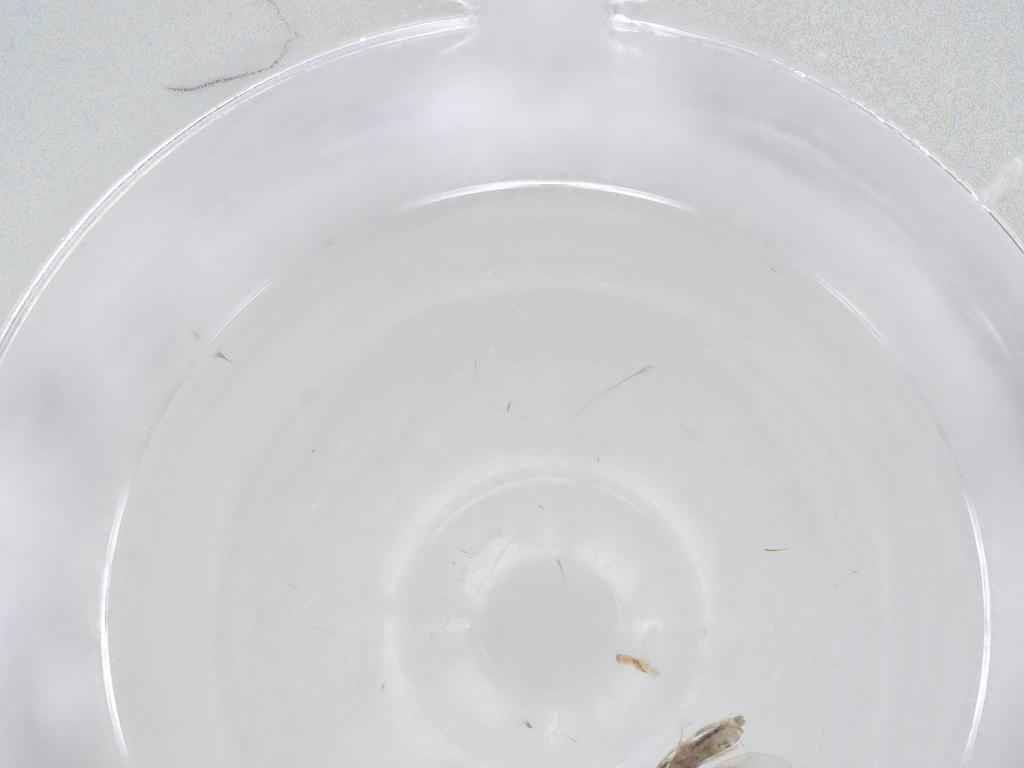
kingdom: Animalia
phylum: Arthropoda
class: Insecta
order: Diptera
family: Cecidomyiidae
